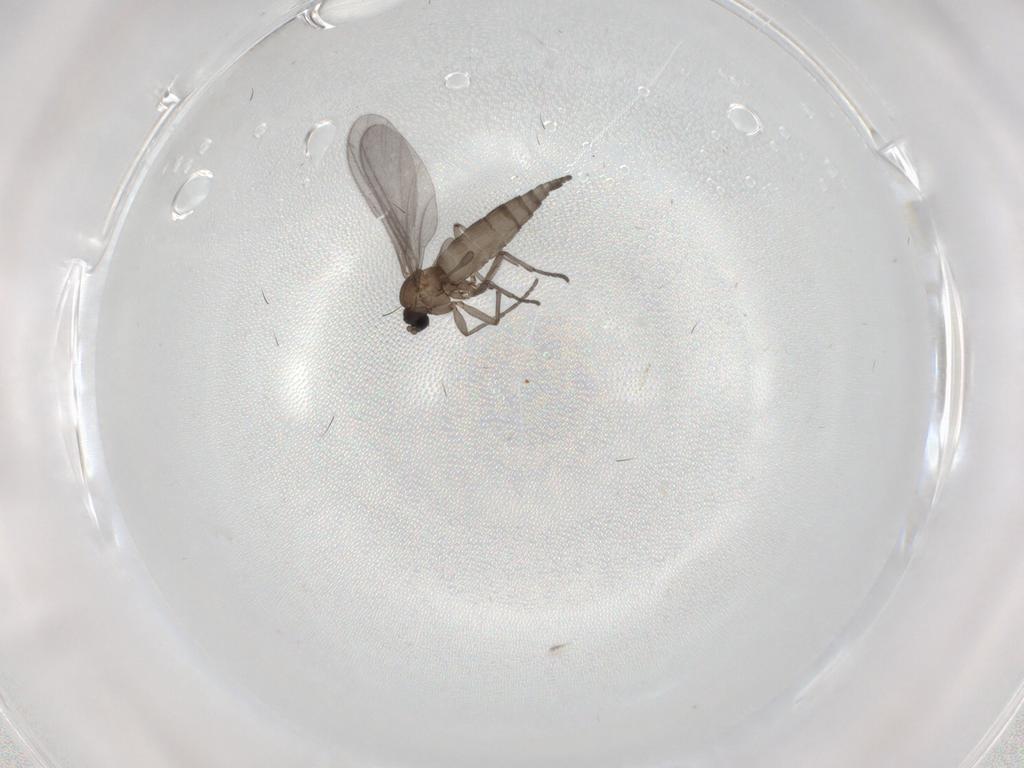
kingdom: Animalia
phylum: Arthropoda
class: Insecta
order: Diptera
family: Sciaridae
